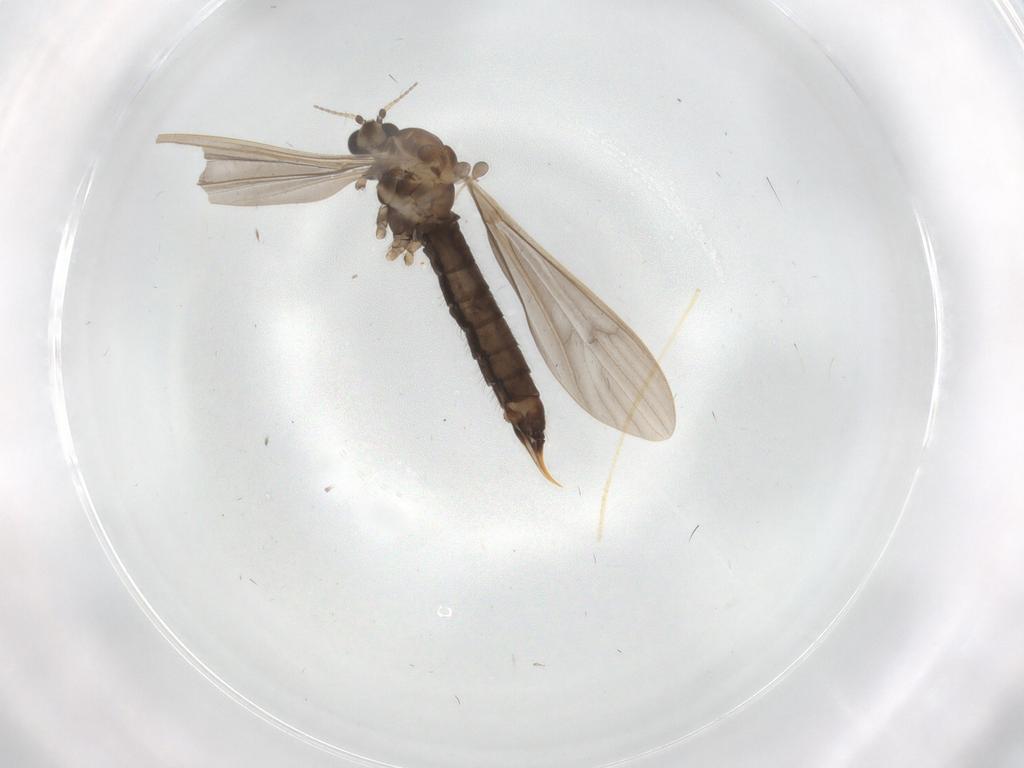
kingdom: Animalia
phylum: Arthropoda
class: Insecta
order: Diptera
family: Limoniidae
